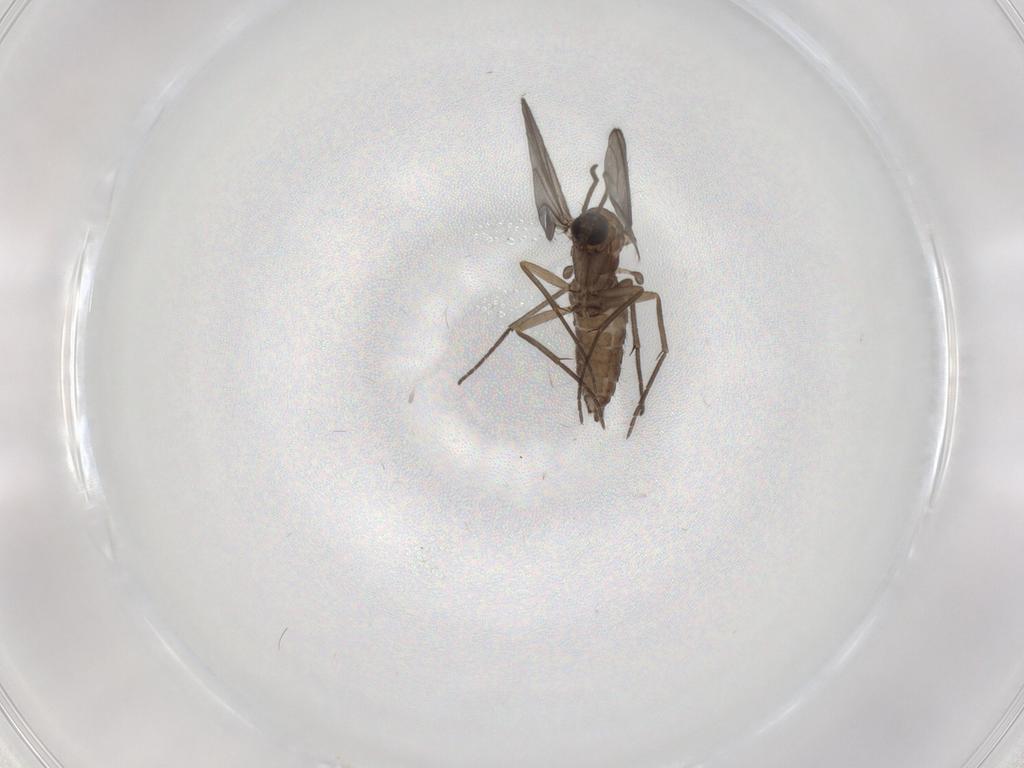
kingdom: Animalia
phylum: Arthropoda
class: Insecta
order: Diptera
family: Sciaridae
